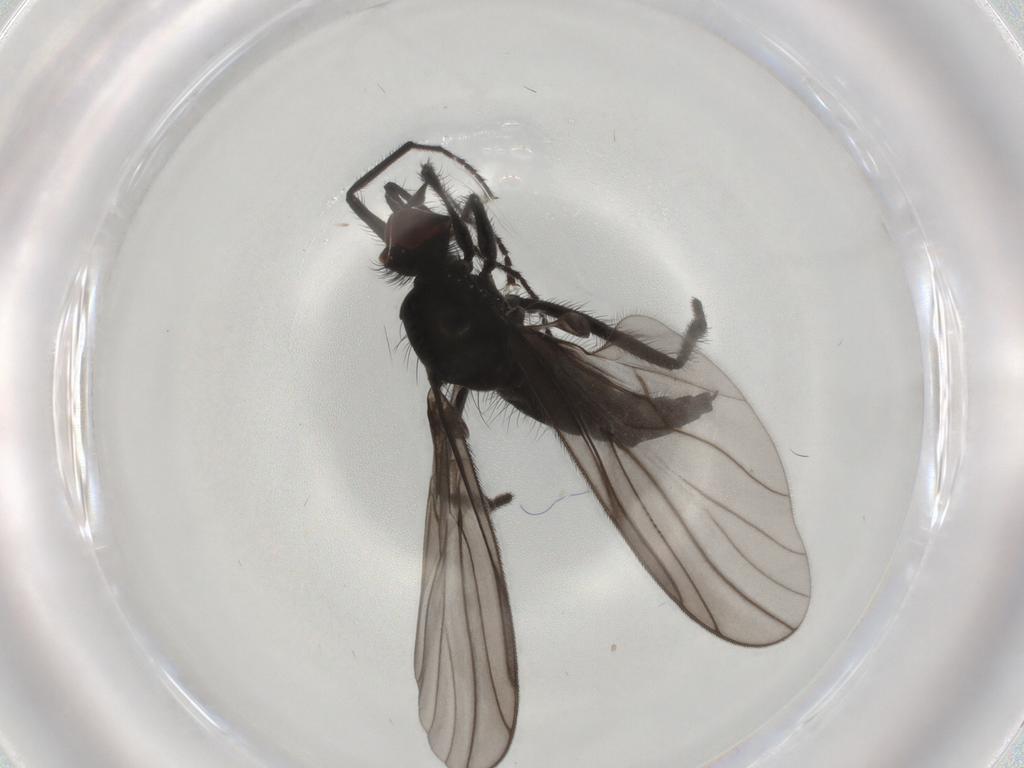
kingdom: Animalia
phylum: Arthropoda
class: Insecta
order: Diptera
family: Hybotidae
